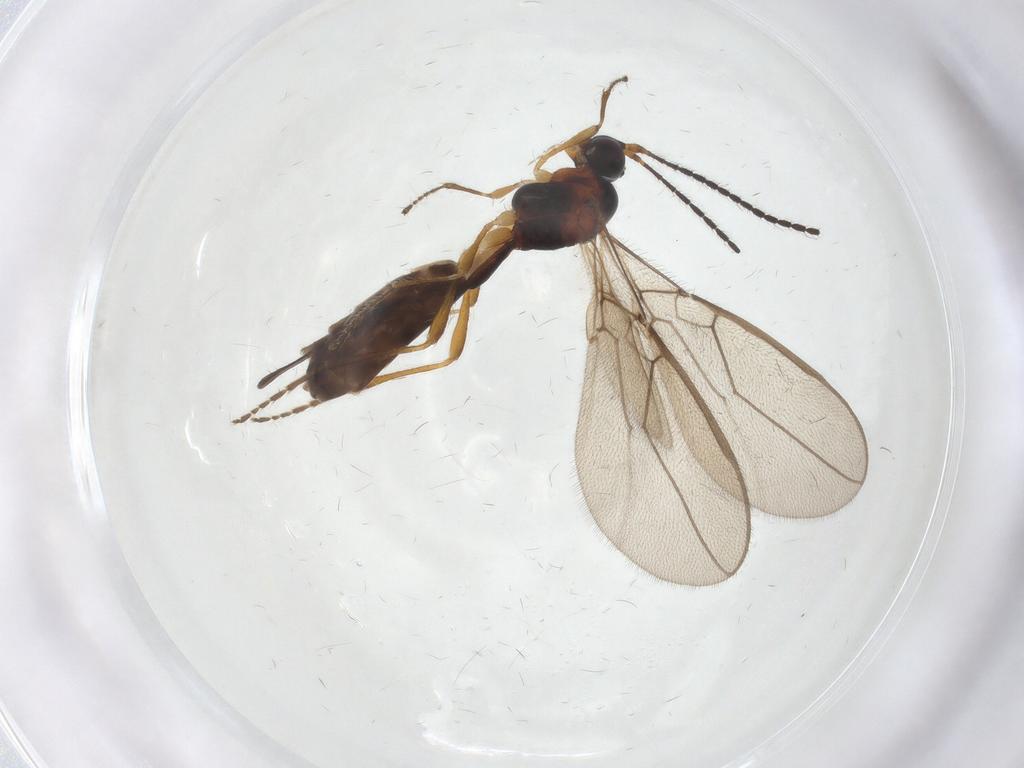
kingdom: Animalia
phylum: Arthropoda
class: Insecta
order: Hymenoptera
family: Braconidae
